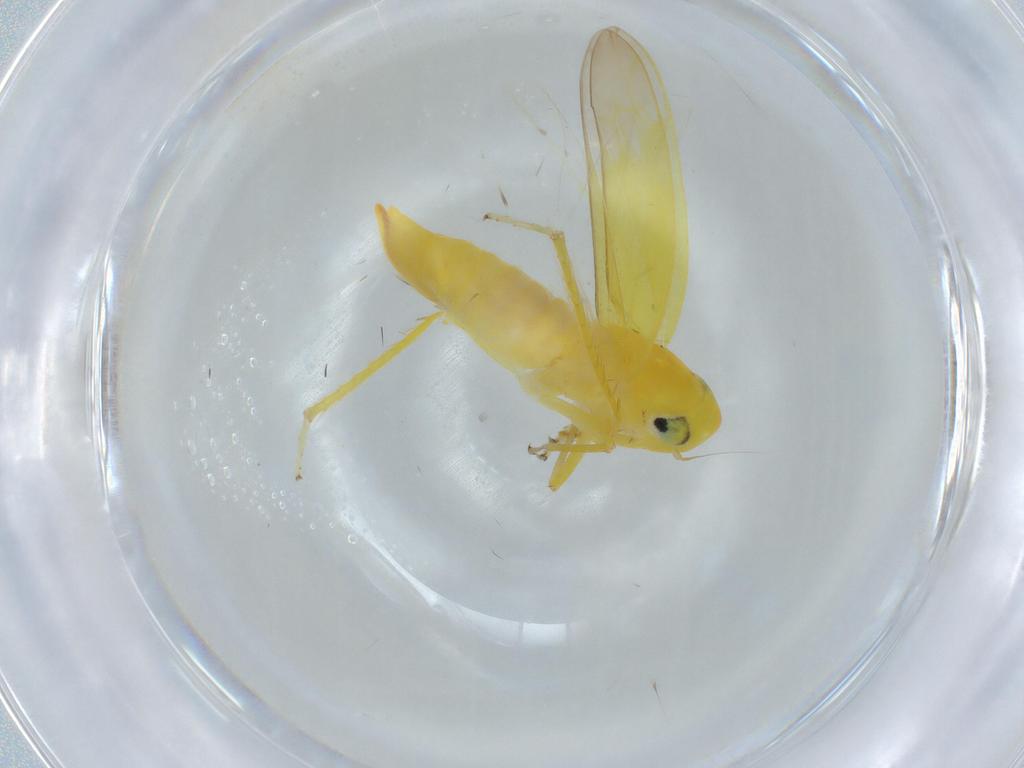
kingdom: Animalia
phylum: Arthropoda
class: Insecta
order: Hemiptera
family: Cicadellidae
